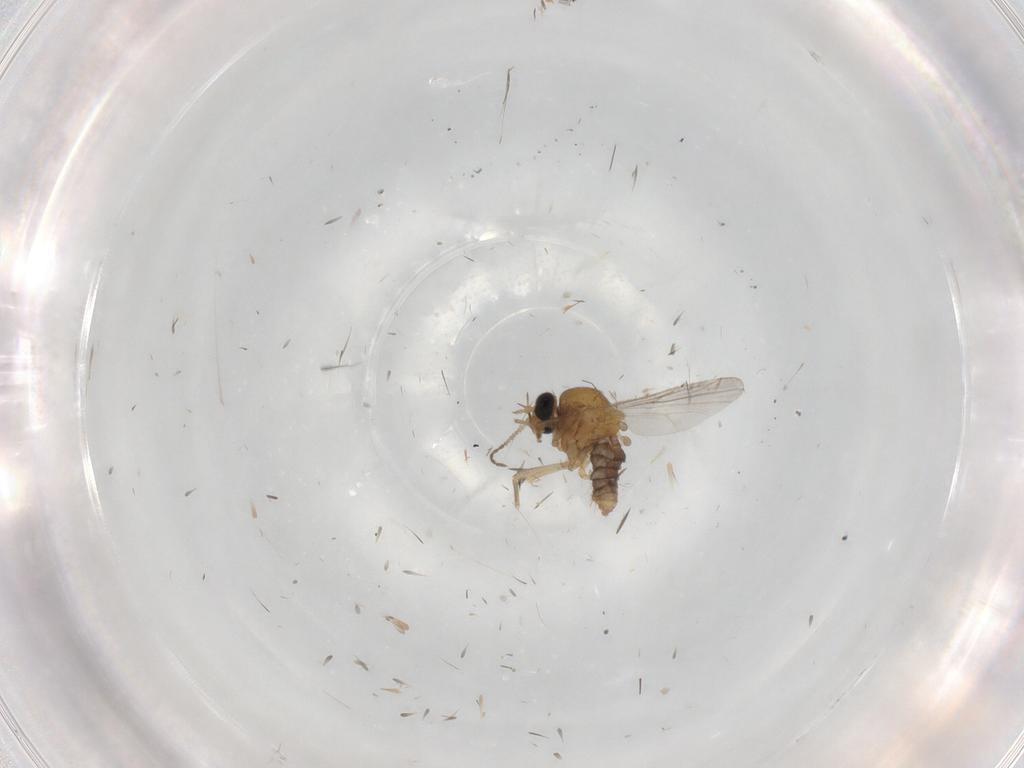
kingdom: Animalia
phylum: Arthropoda
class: Insecta
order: Diptera
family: Ceratopogonidae
